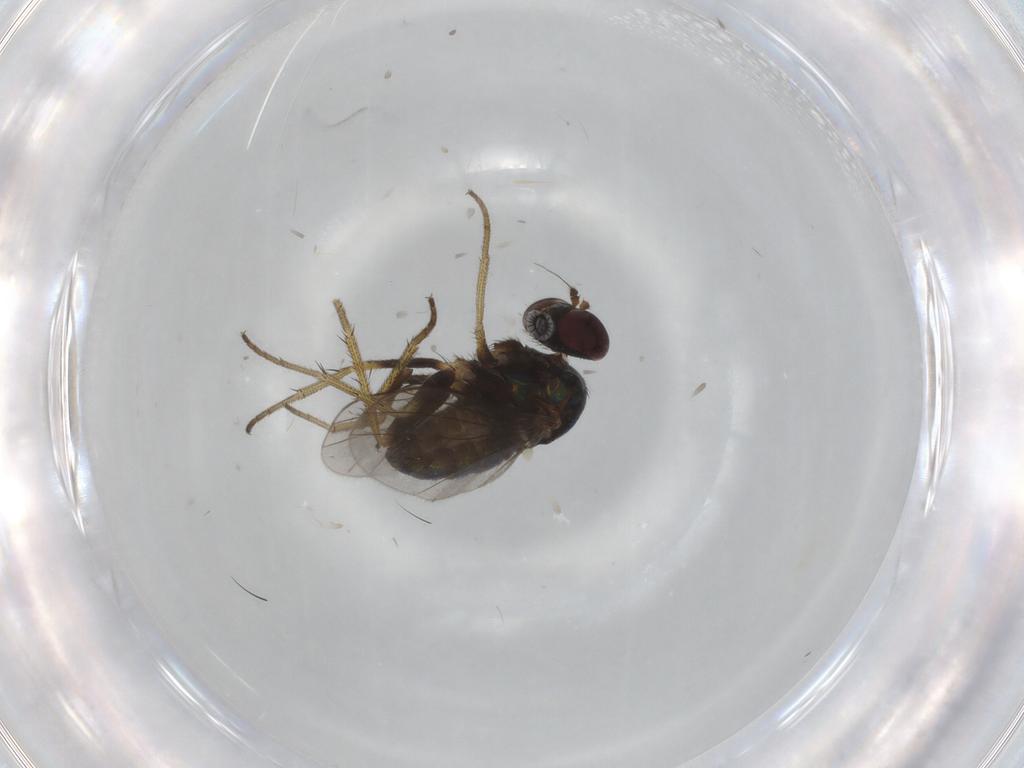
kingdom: Animalia
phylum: Arthropoda
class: Insecta
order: Diptera
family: Dolichopodidae
